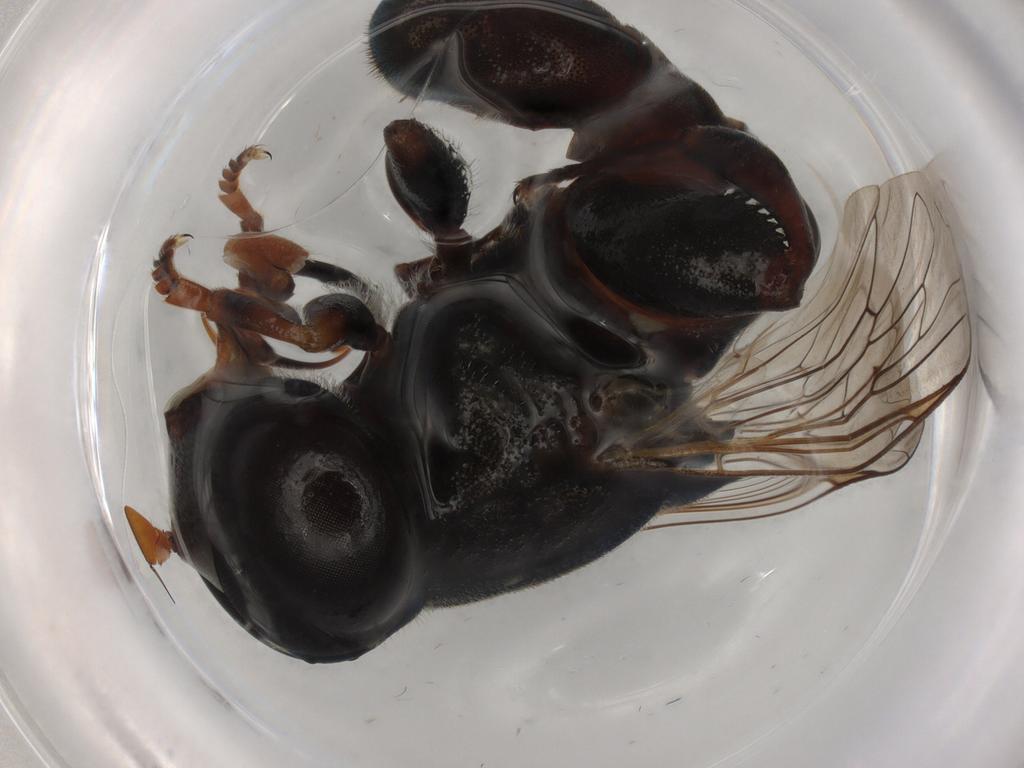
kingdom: Animalia
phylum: Arthropoda
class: Insecta
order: Hymenoptera
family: Scelionidae
